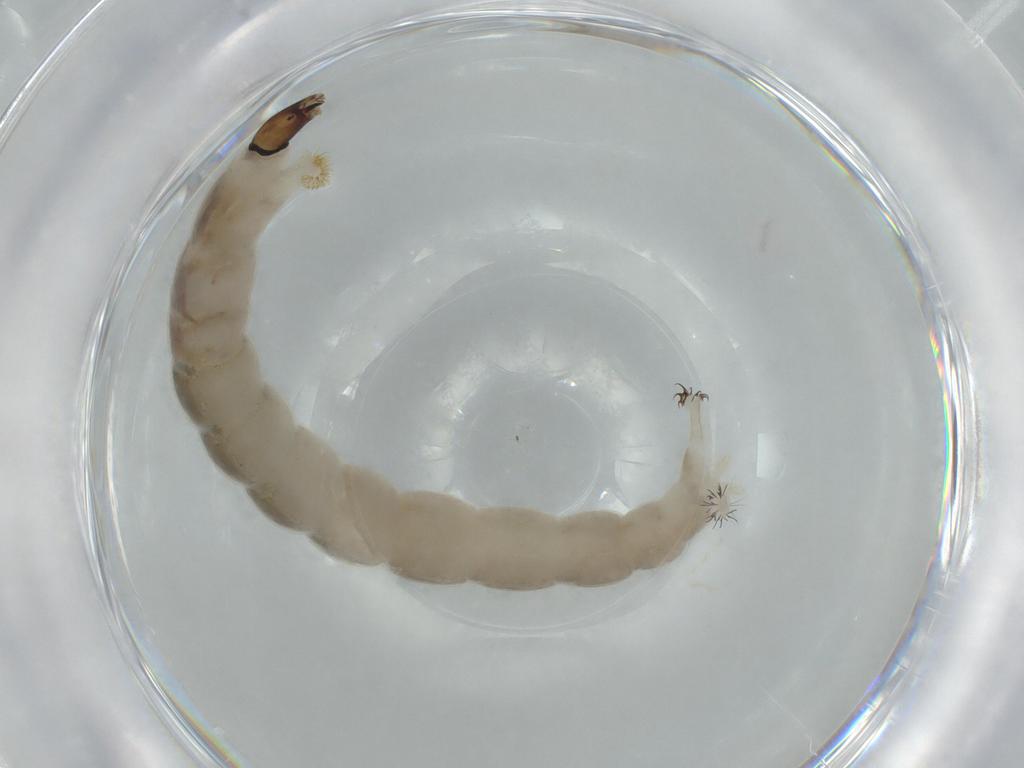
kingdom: Animalia
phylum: Arthropoda
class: Insecta
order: Diptera
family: Chironomidae
